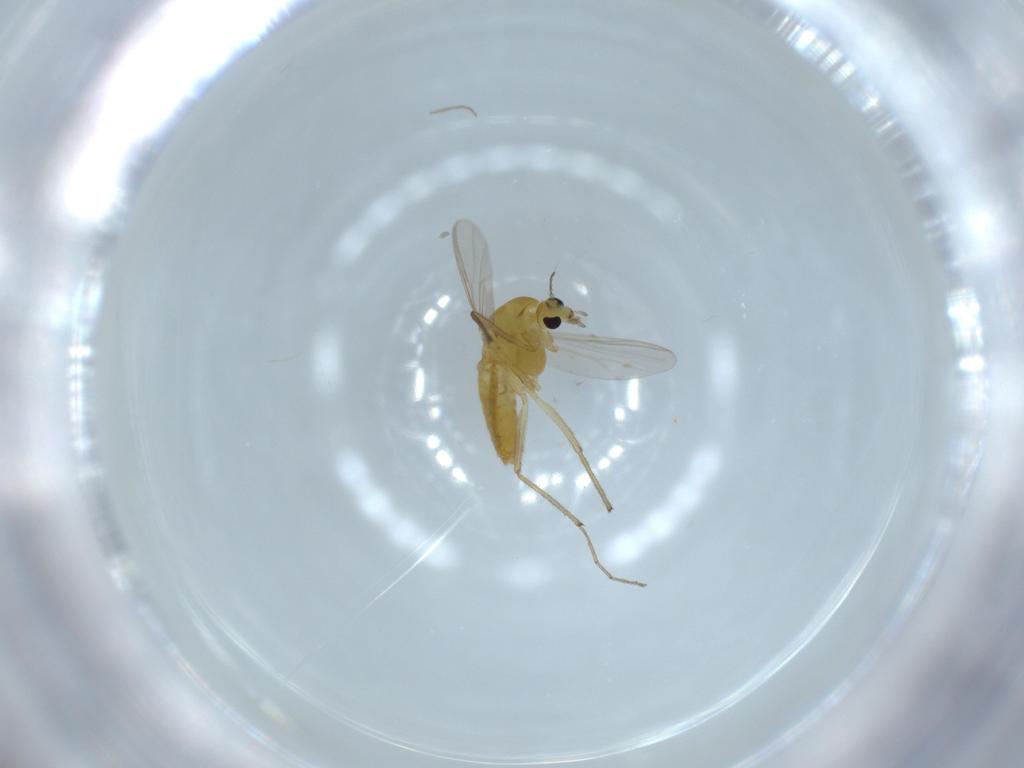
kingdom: Animalia
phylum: Arthropoda
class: Insecta
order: Diptera
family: Chironomidae
